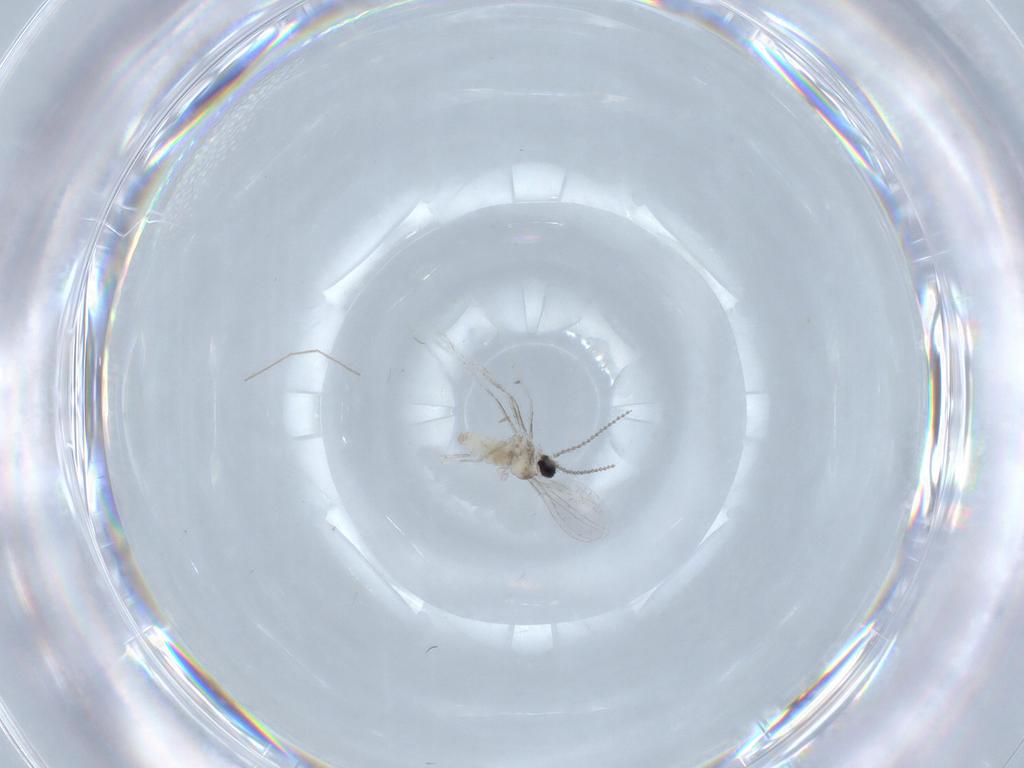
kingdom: Animalia
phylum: Arthropoda
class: Insecta
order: Diptera
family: Chironomidae
